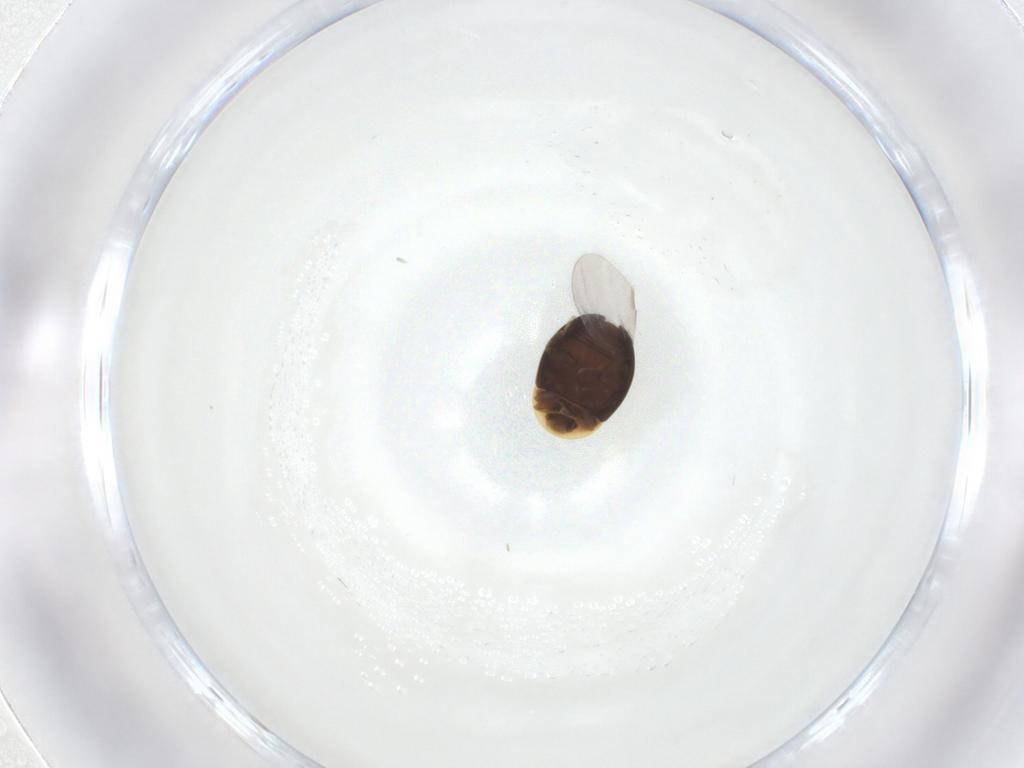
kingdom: Animalia
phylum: Arthropoda
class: Insecta
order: Coleoptera
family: Corylophidae
